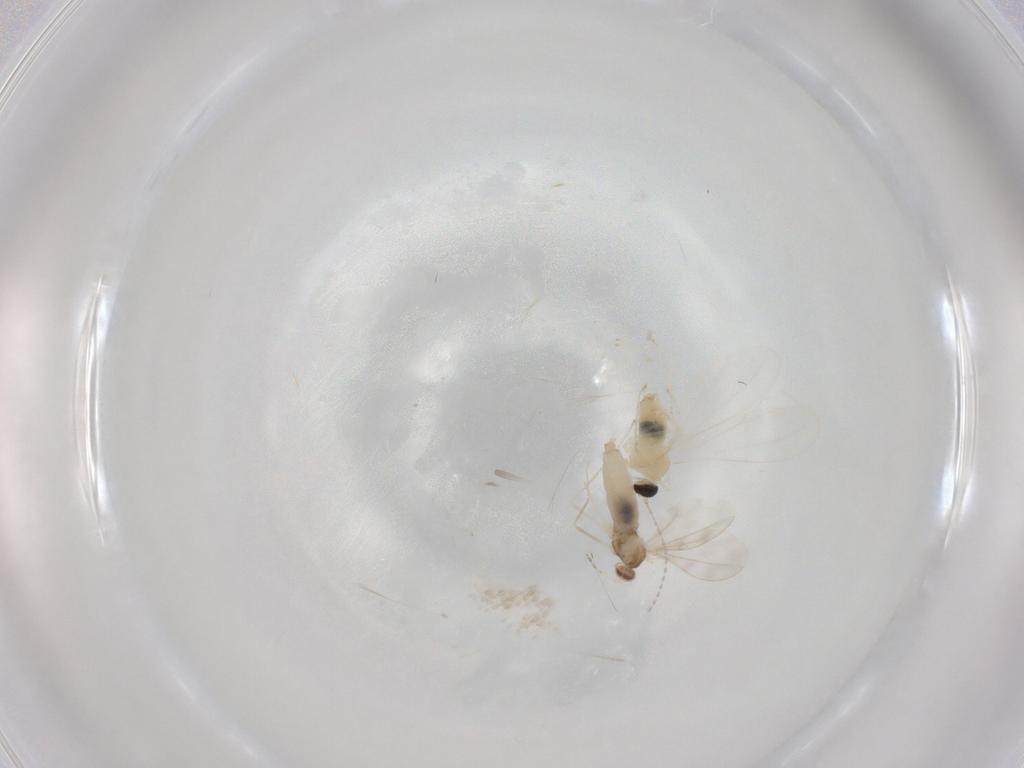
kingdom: Animalia
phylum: Arthropoda
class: Insecta
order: Diptera
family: Cecidomyiidae
